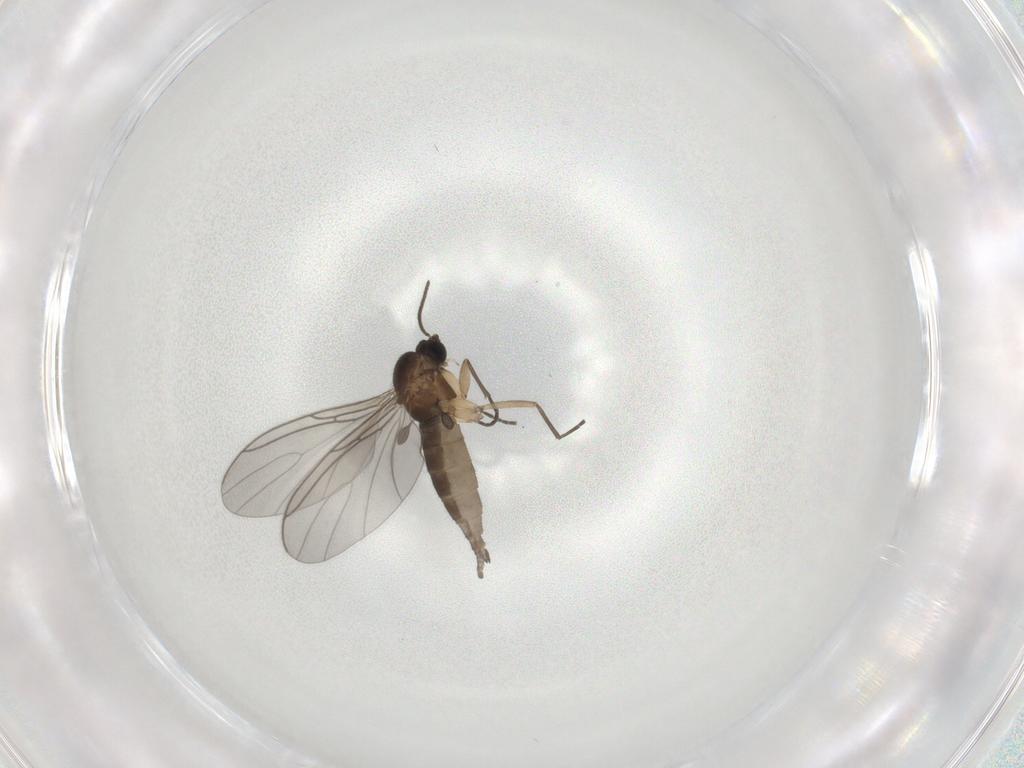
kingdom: Animalia
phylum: Arthropoda
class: Insecta
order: Diptera
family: Sciaridae
